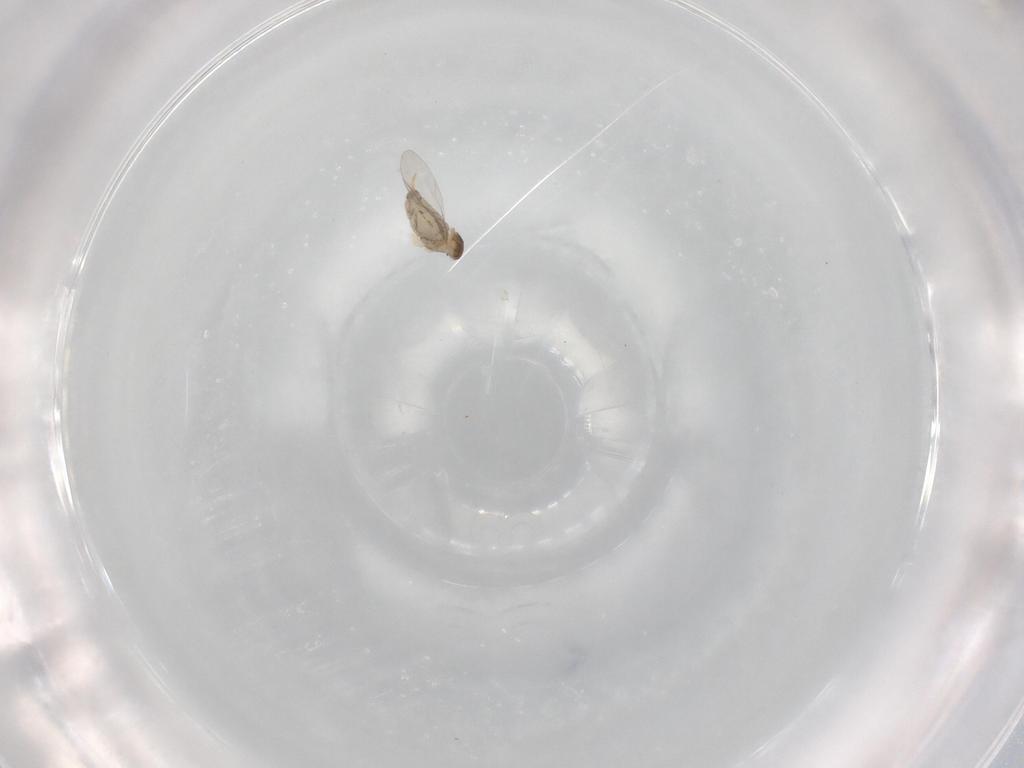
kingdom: Animalia
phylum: Arthropoda
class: Insecta
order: Diptera
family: Cecidomyiidae
